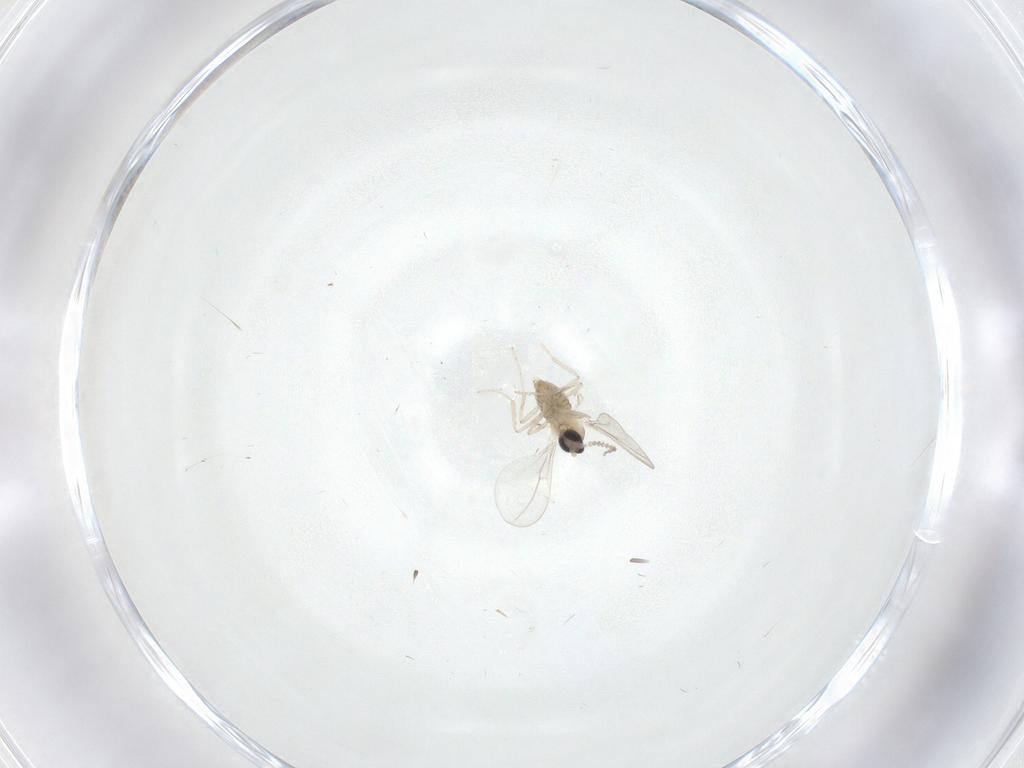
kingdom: Animalia
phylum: Arthropoda
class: Insecta
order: Diptera
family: Cecidomyiidae
